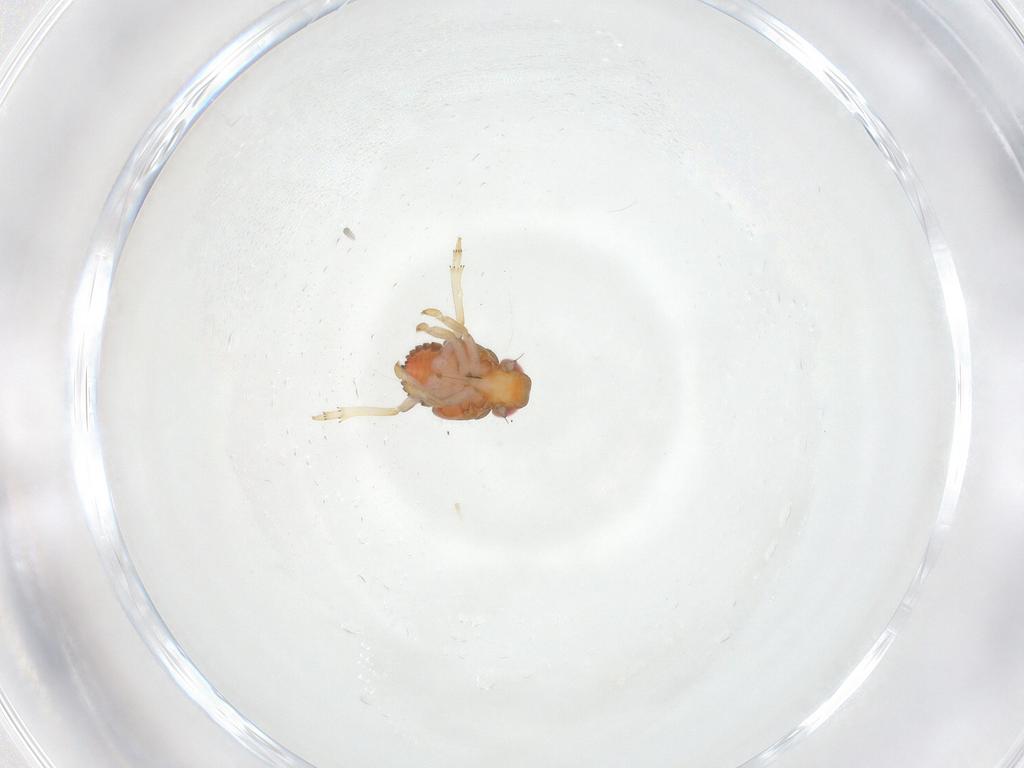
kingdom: Animalia
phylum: Arthropoda
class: Insecta
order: Hemiptera
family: Issidae
